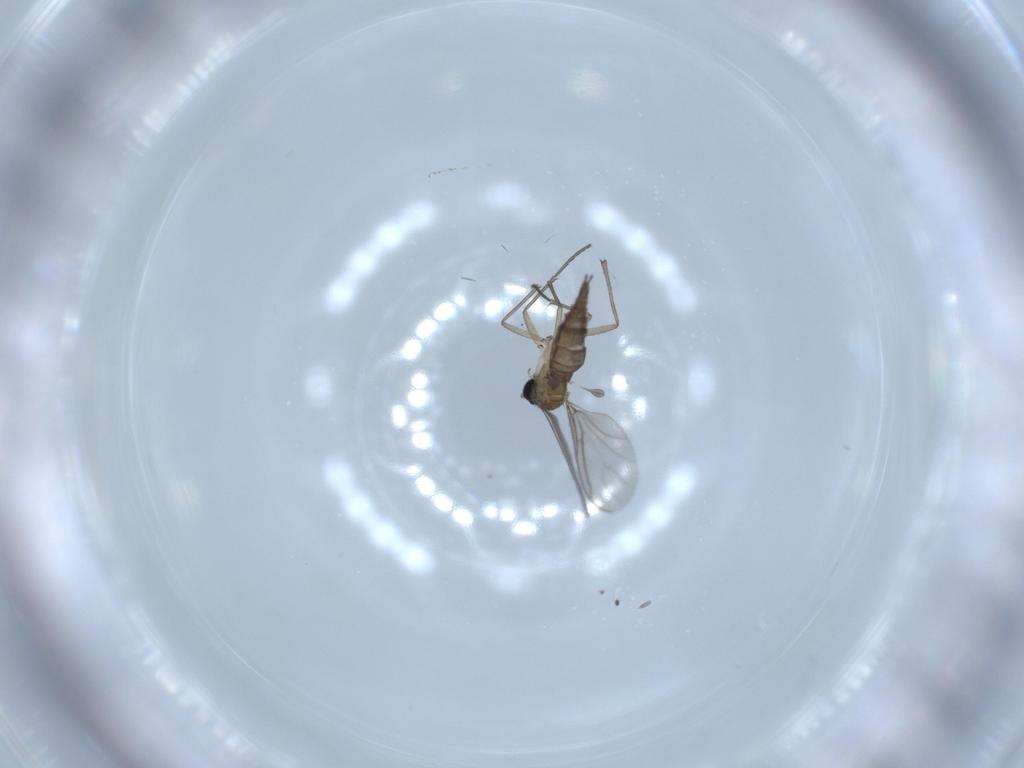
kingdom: Animalia
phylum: Arthropoda
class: Insecta
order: Diptera
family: Sciaridae
